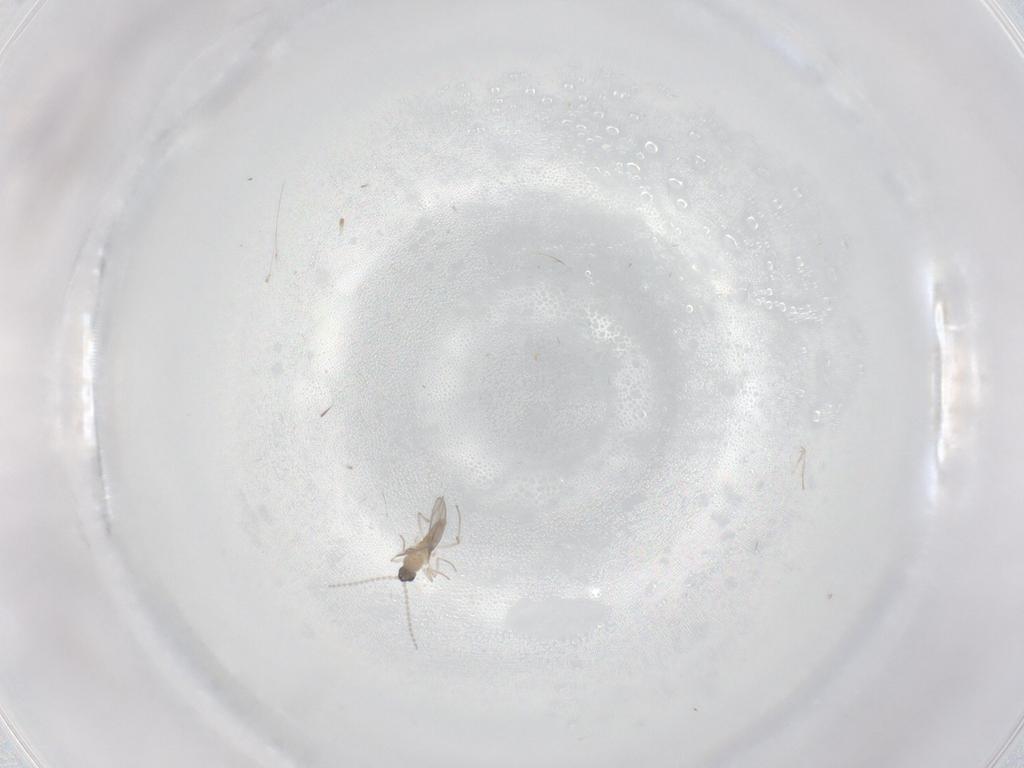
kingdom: Animalia
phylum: Arthropoda
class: Insecta
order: Diptera
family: Cecidomyiidae
